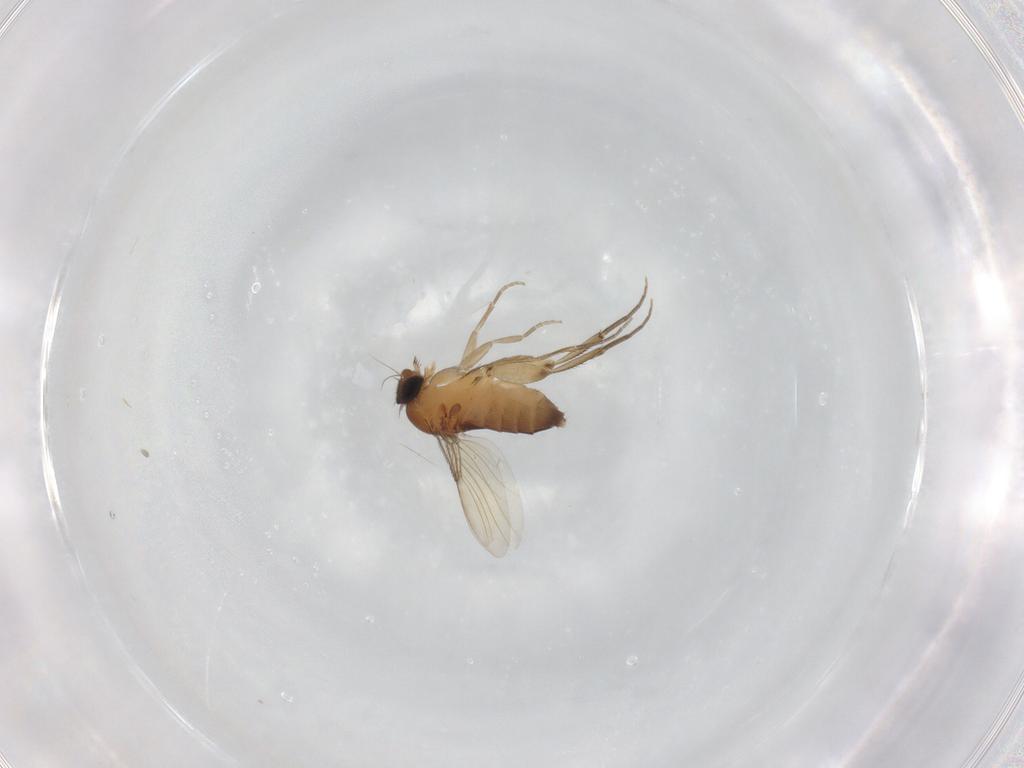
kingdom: Animalia
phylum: Arthropoda
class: Insecta
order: Diptera
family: Phoridae
